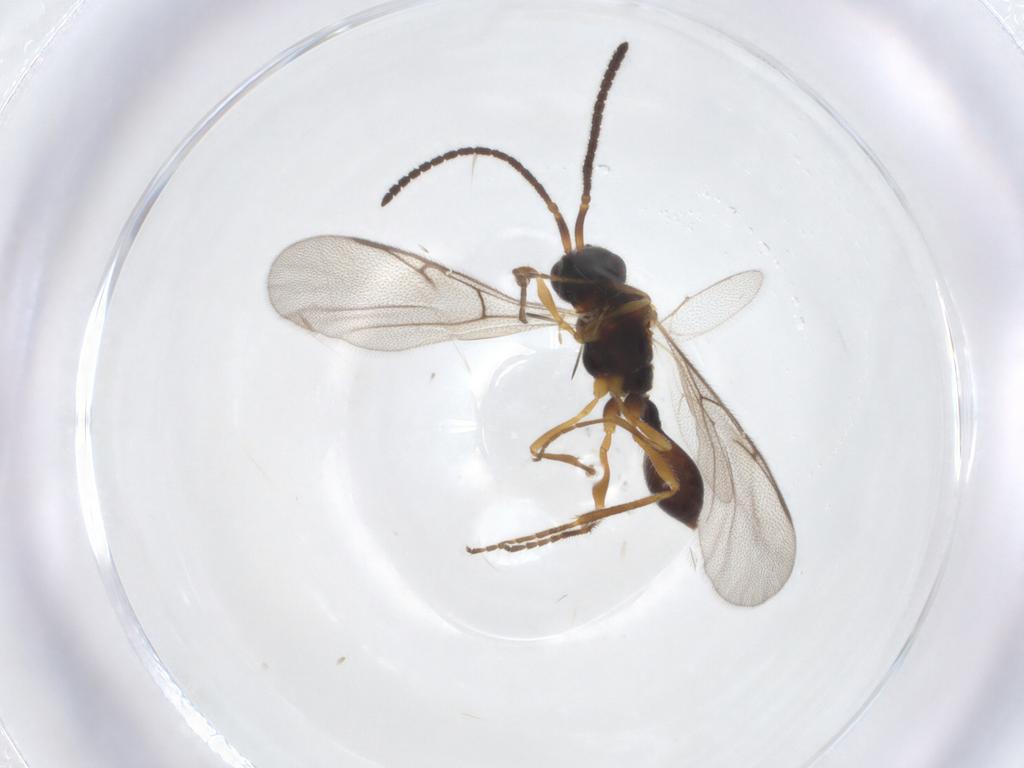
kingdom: Animalia
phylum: Arthropoda
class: Insecta
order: Hymenoptera
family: Diapriidae
